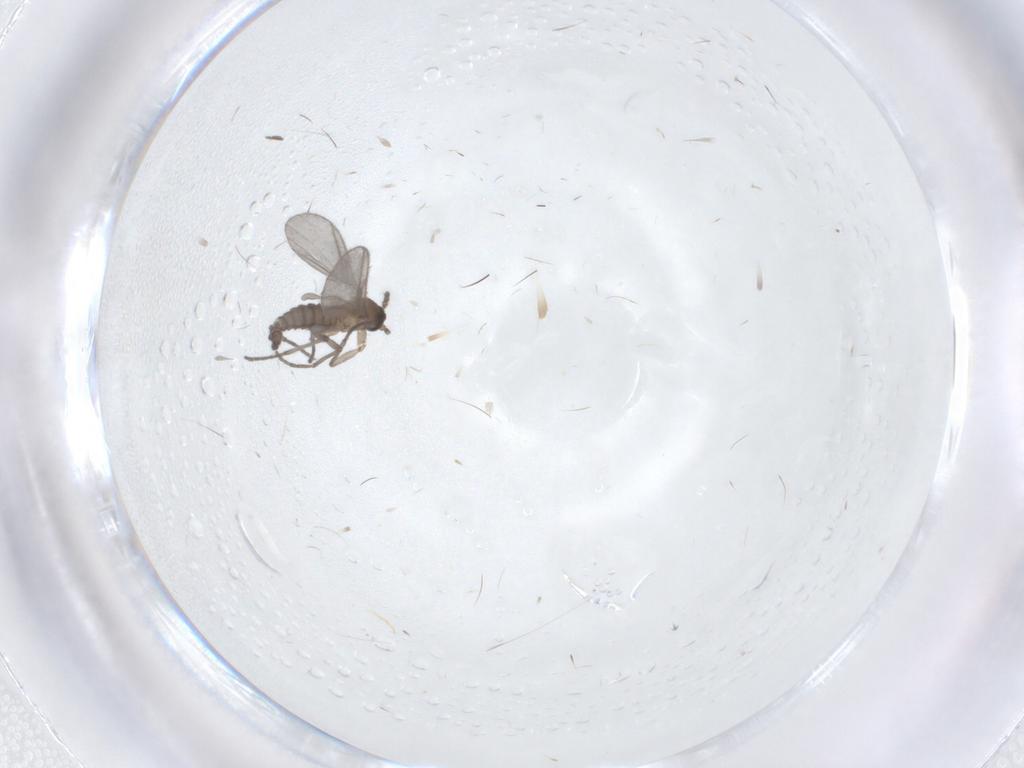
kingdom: Animalia
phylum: Arthropoda
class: Insecta
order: Diptera
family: Sciaridae
